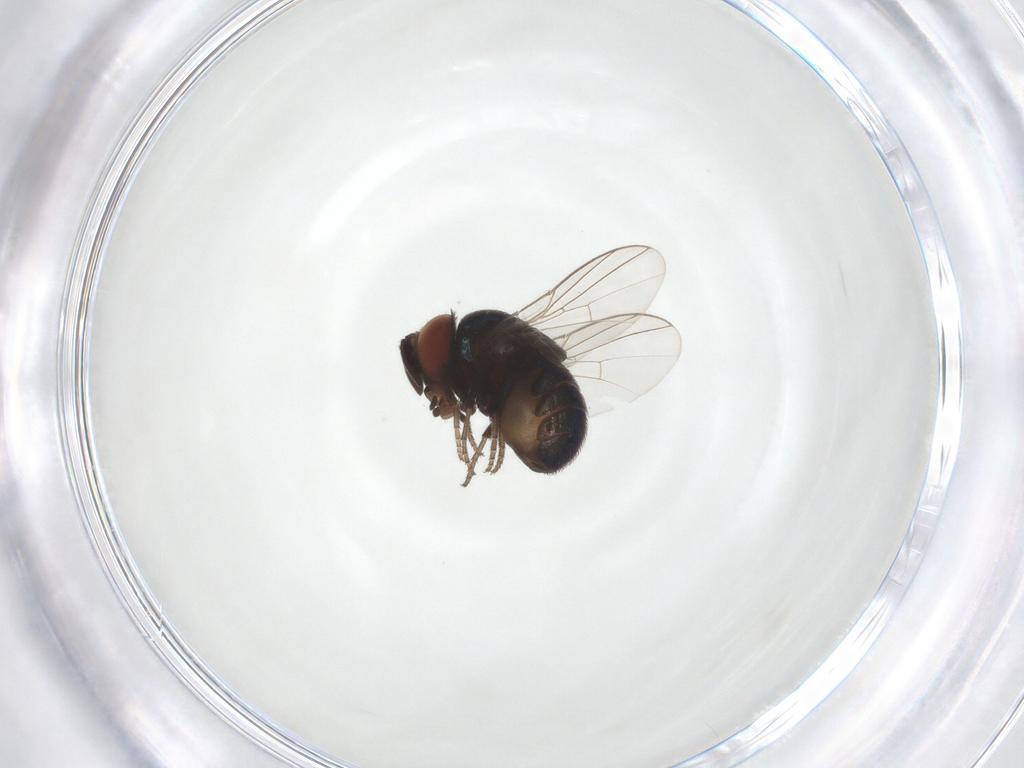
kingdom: Animalia
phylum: Arthropoda
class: Insecta
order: Diptera
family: Cryptochetidae
